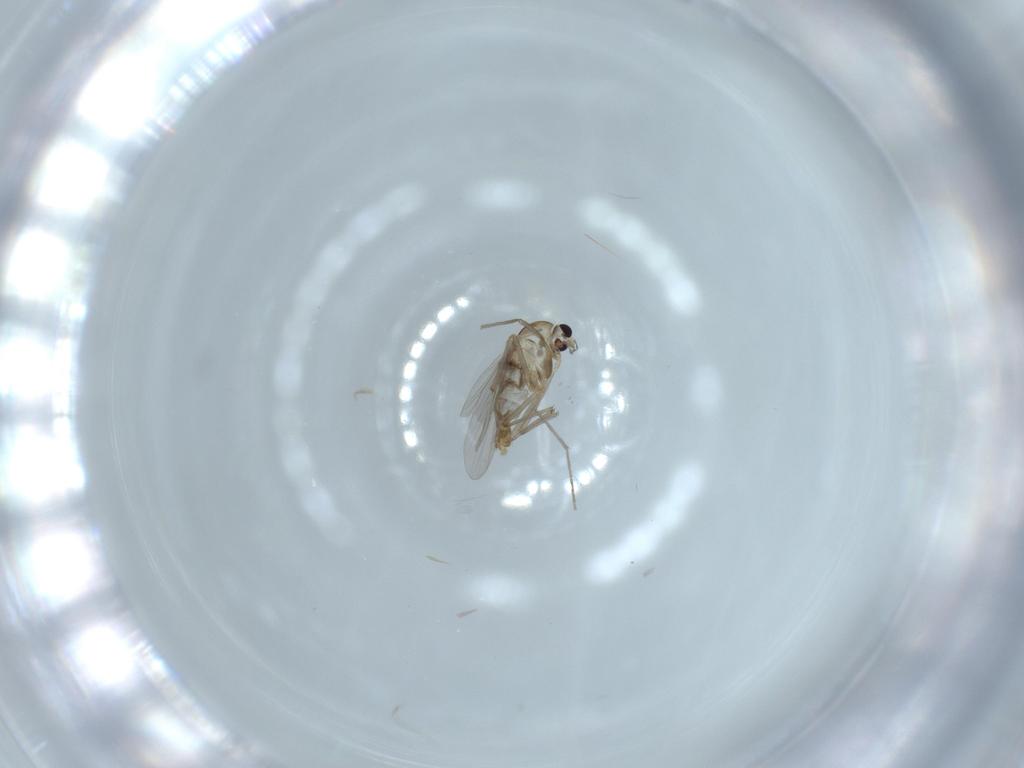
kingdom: Animalia
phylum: Arthropoda
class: Insecta
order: Diptera
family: Chironomidae
